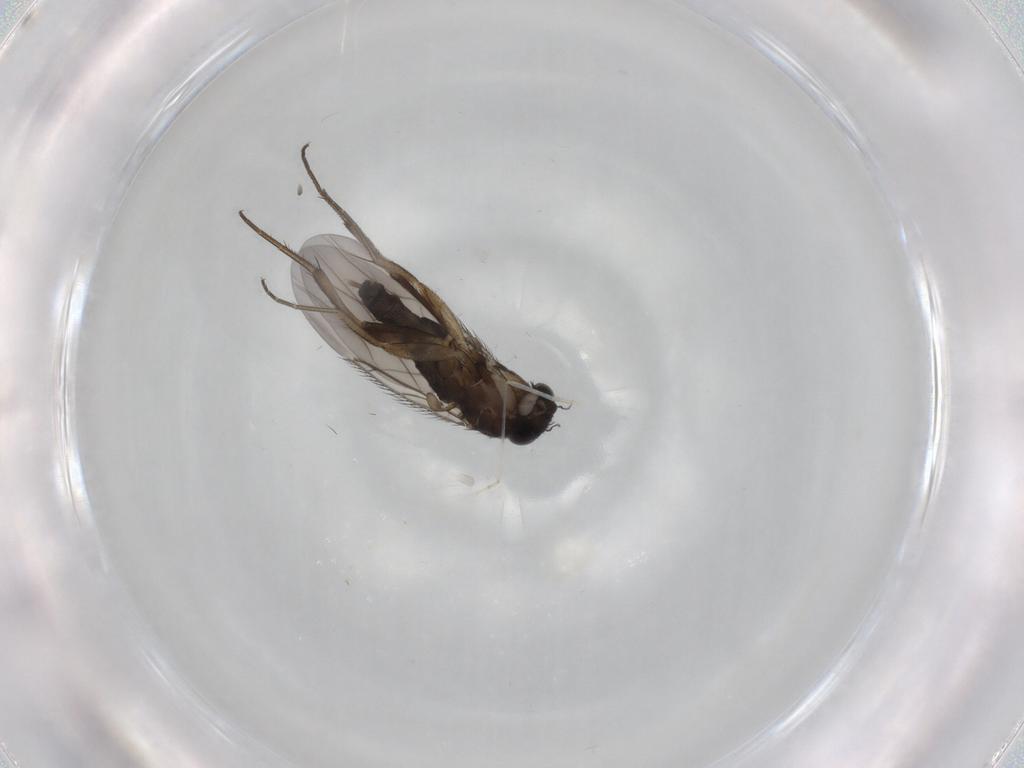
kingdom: Animalia
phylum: Arthropoda
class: Insecta
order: Diptera
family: Phoridae
